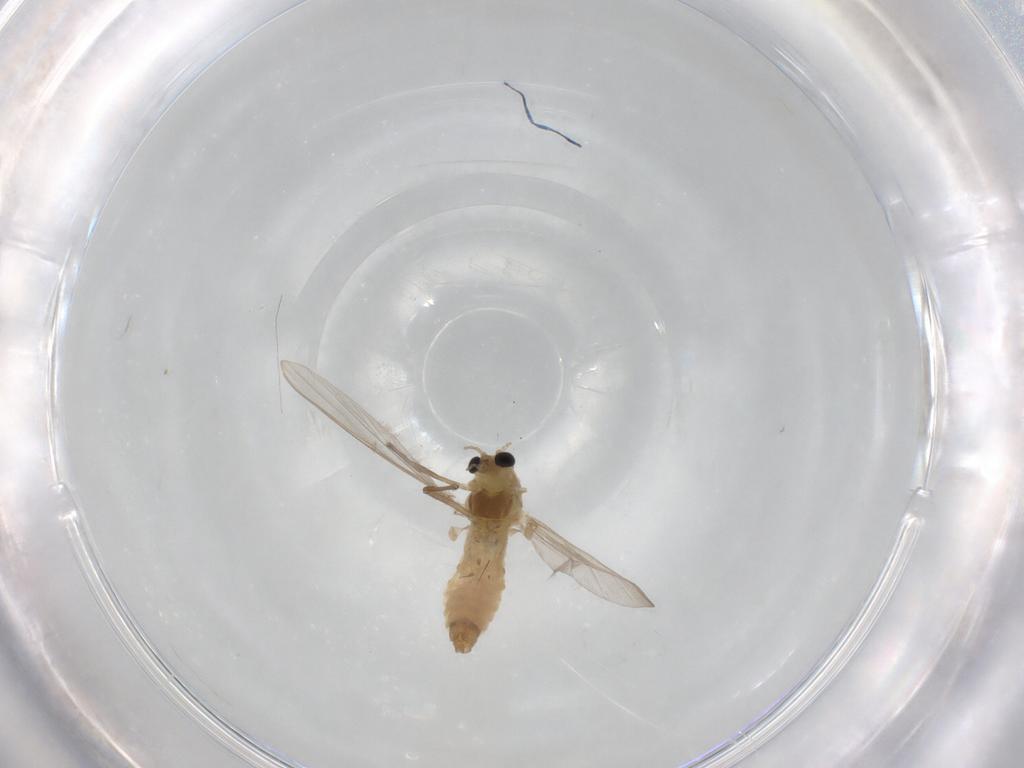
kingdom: Animalia
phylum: Arthropoda
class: Insecta
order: Diptera
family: Chironomidae
